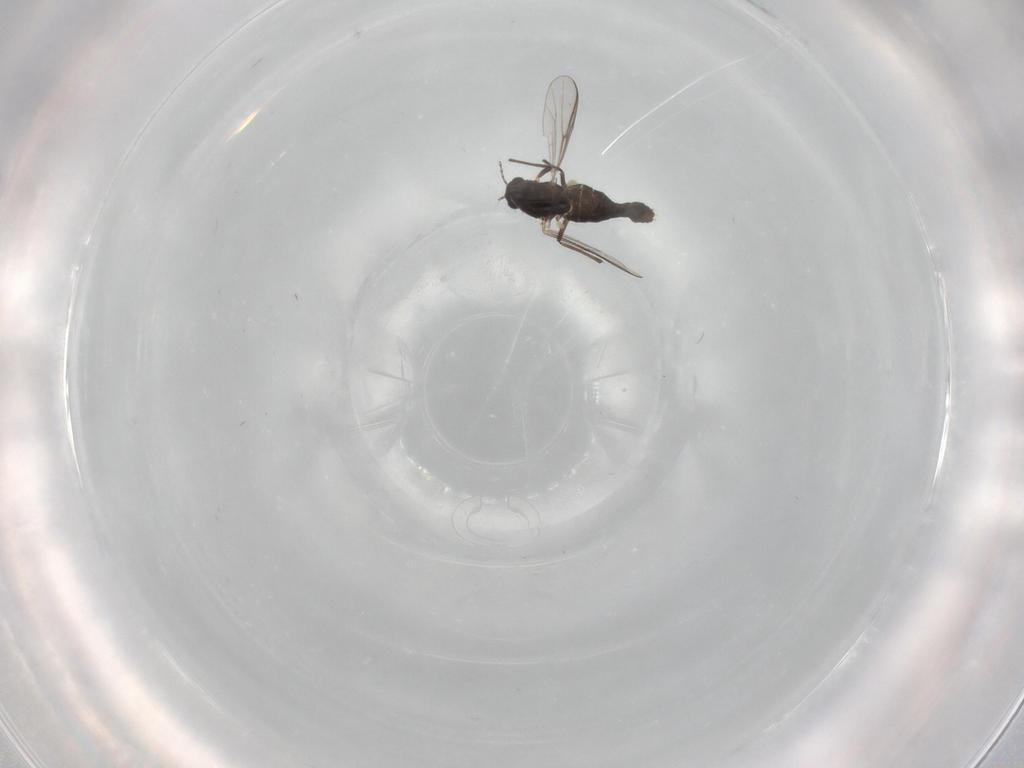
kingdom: Animalia
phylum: Arthropoda
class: Insecta
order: Diptera
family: Chironomidae
